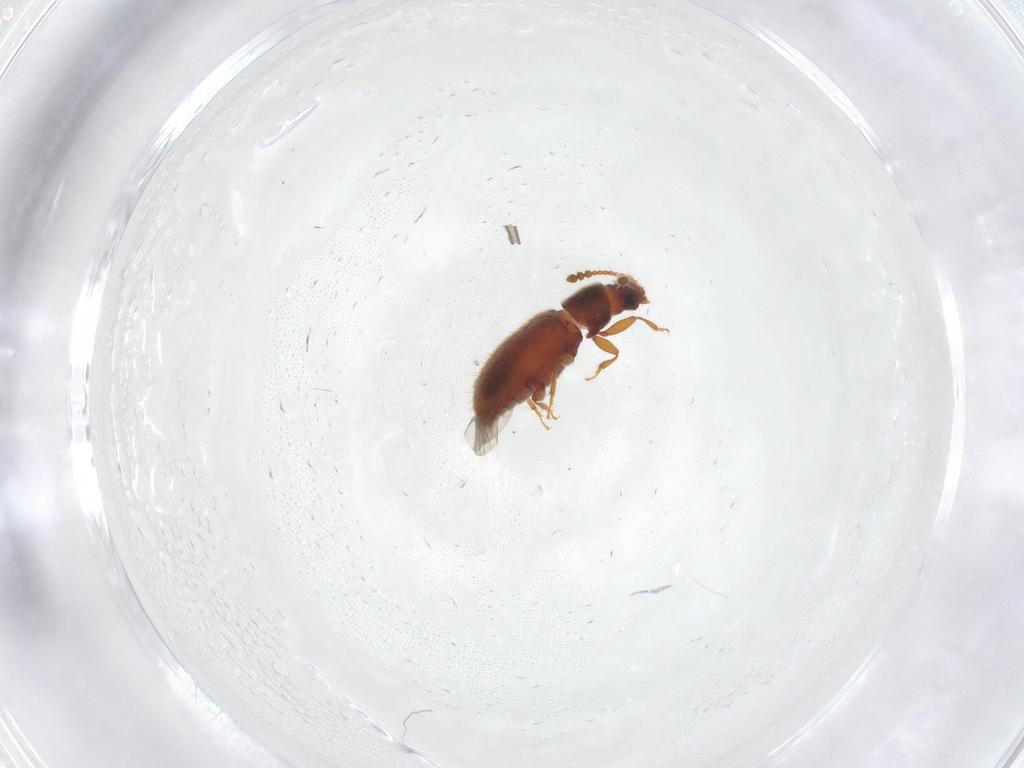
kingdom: Animalia
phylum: Arthropoda
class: Insecta
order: Coleoptera
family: Cryptophagidae
